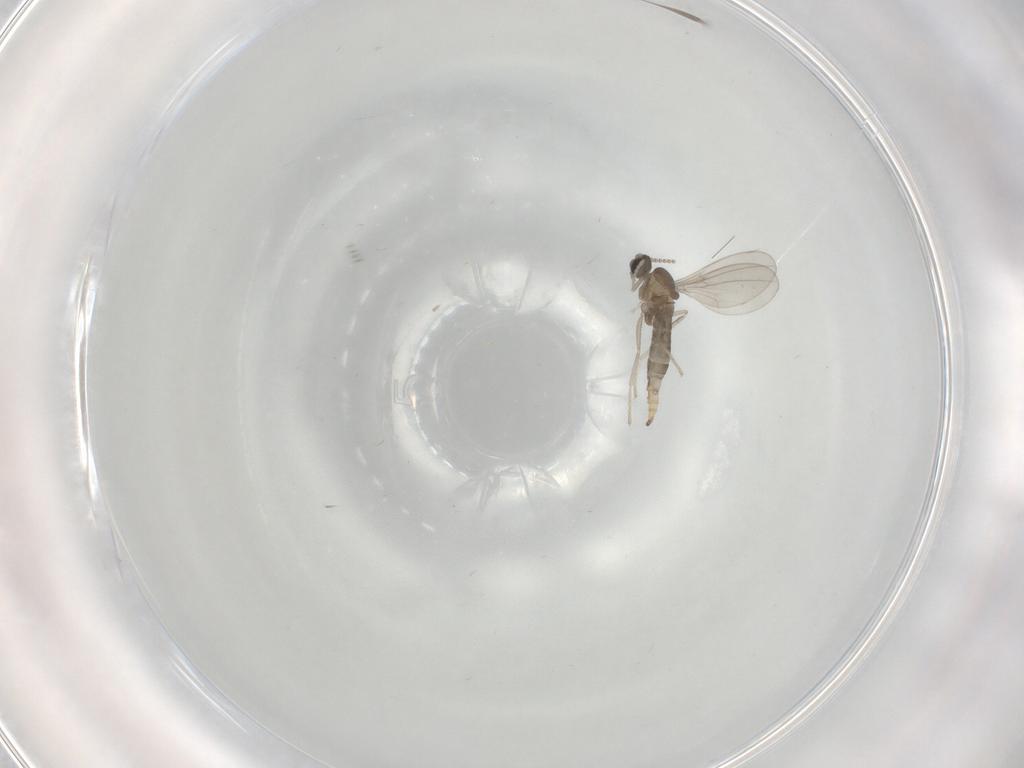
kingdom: Animalia
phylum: Arthropoda
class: Insecta
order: Diptera
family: Cecidomyiidae
